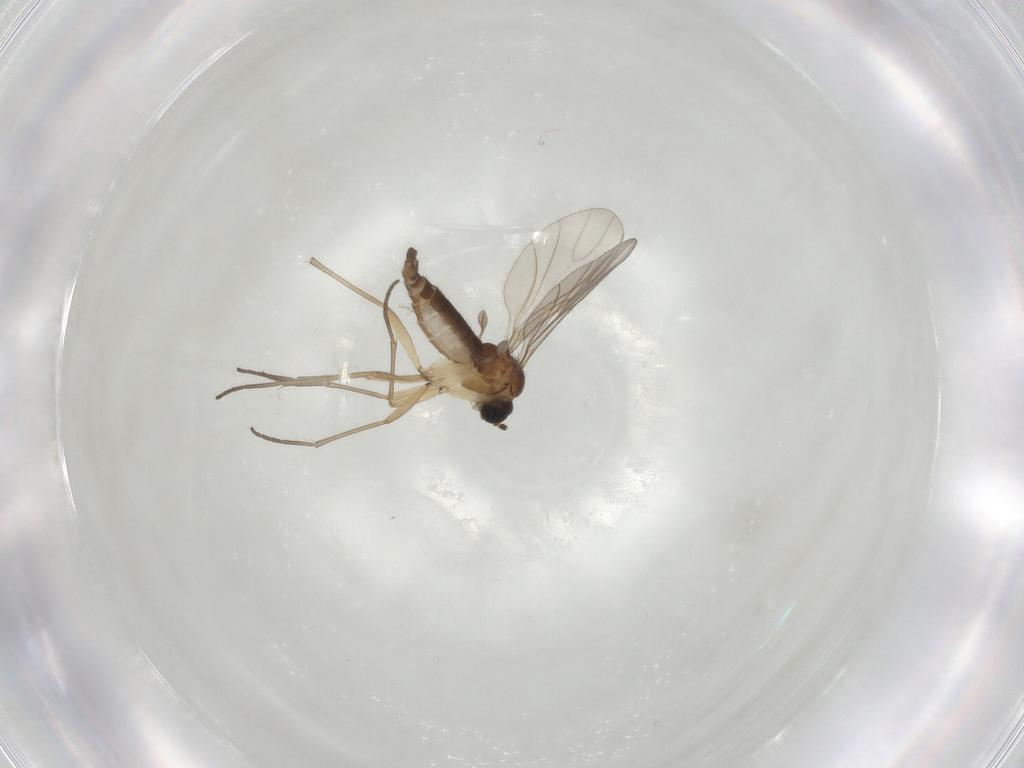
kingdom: Animalia
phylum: Arthropoda
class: Insecta
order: Diptera
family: Sciaridae
